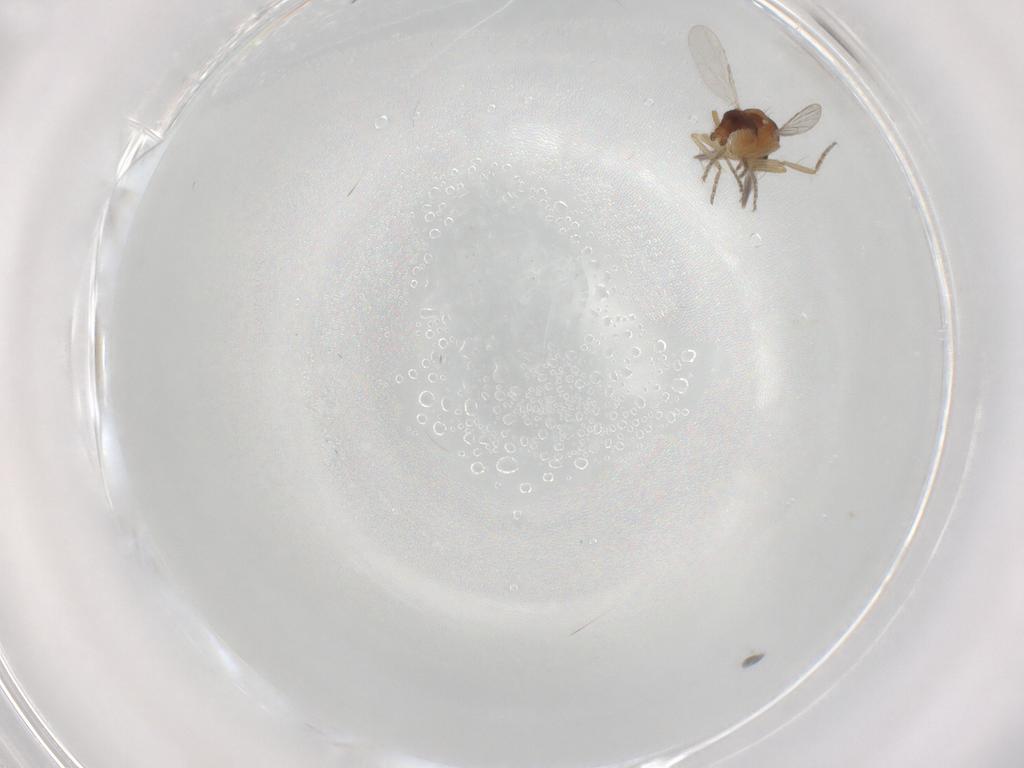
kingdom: Animalia
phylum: Arthropoda
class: Insecta
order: Diptera
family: Ceratopogonidae
